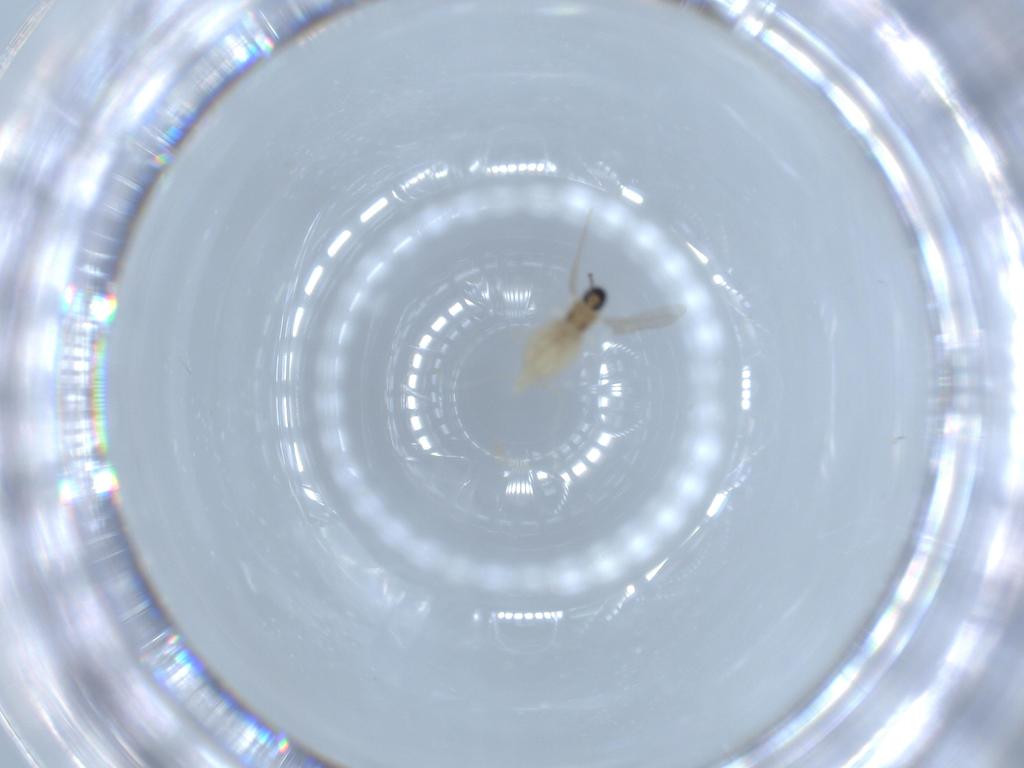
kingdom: Animalia
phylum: Arthropoda
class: Insecta
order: Diptera
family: Cecidomyiidae
